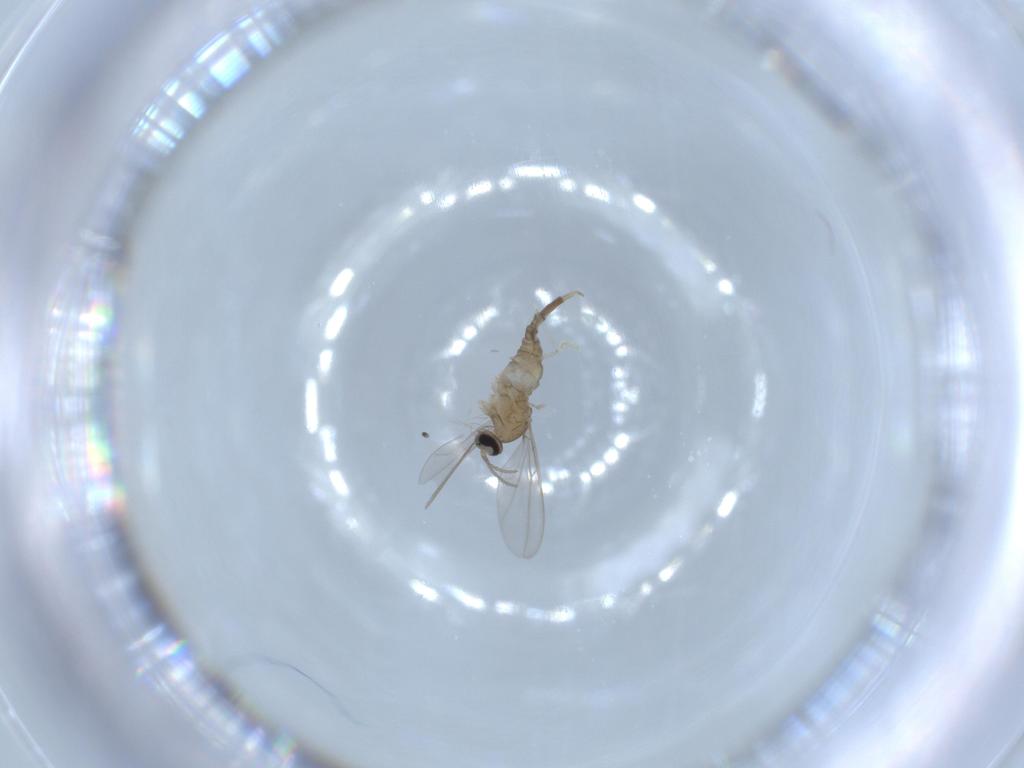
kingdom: Animalia
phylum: Arthropoda
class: Insecta
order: Diptera
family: Cecidomyiidae
